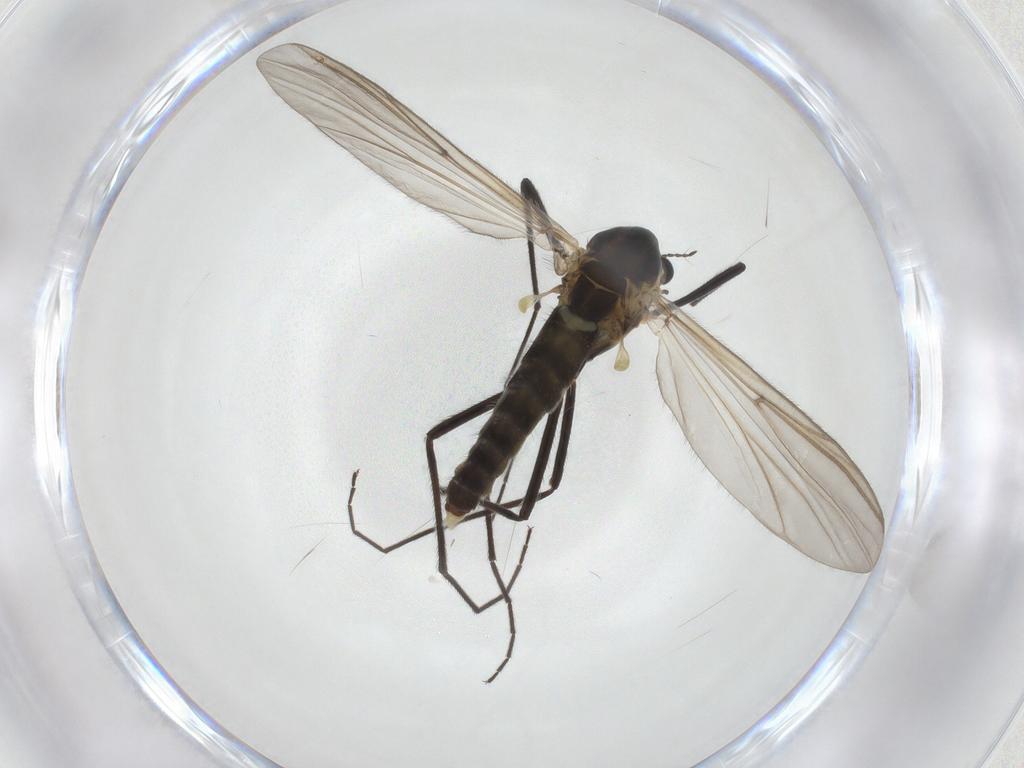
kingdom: Animalia
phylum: Arthropoda
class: Insecta
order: Diptera
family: Chironomidae
